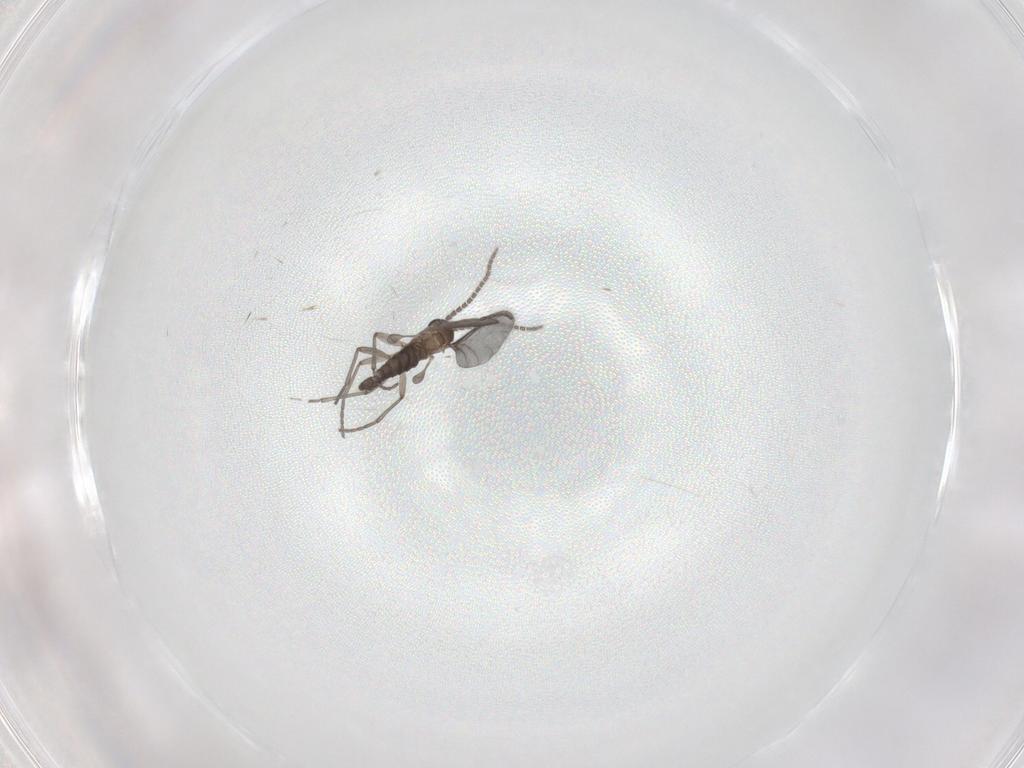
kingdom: Animalia
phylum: Arthropoda
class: Insecta
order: Diptera
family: Sciaridae
